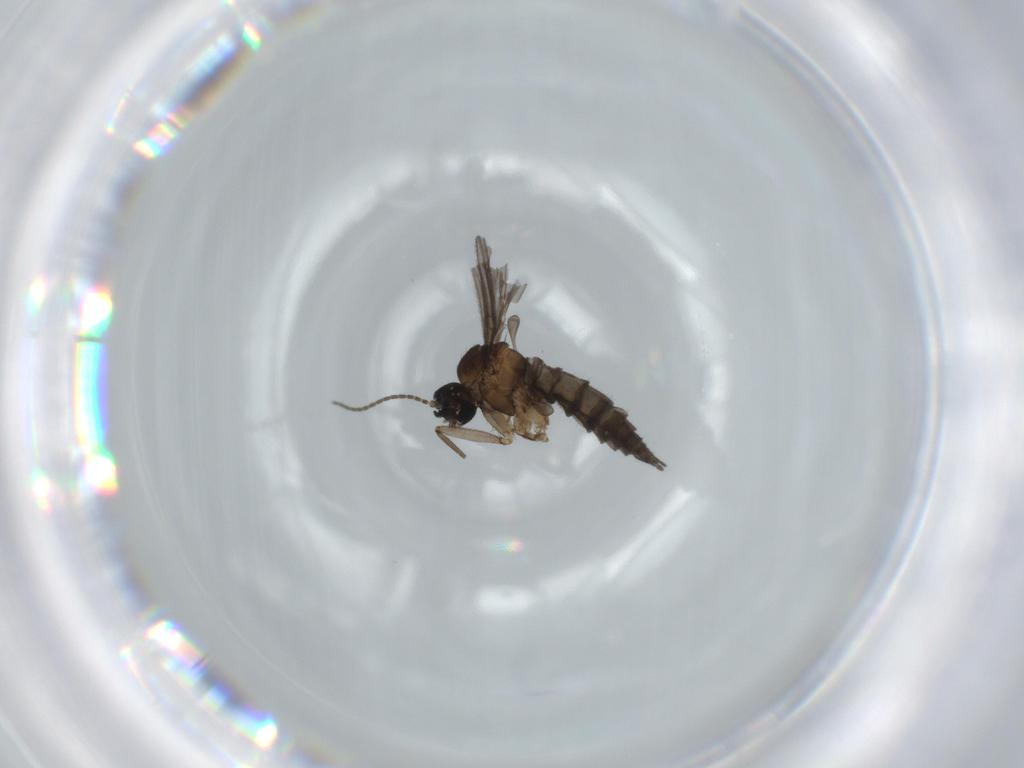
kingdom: Animalia
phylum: Arthropoda
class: Insecta
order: Diptera
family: Sciaridae
